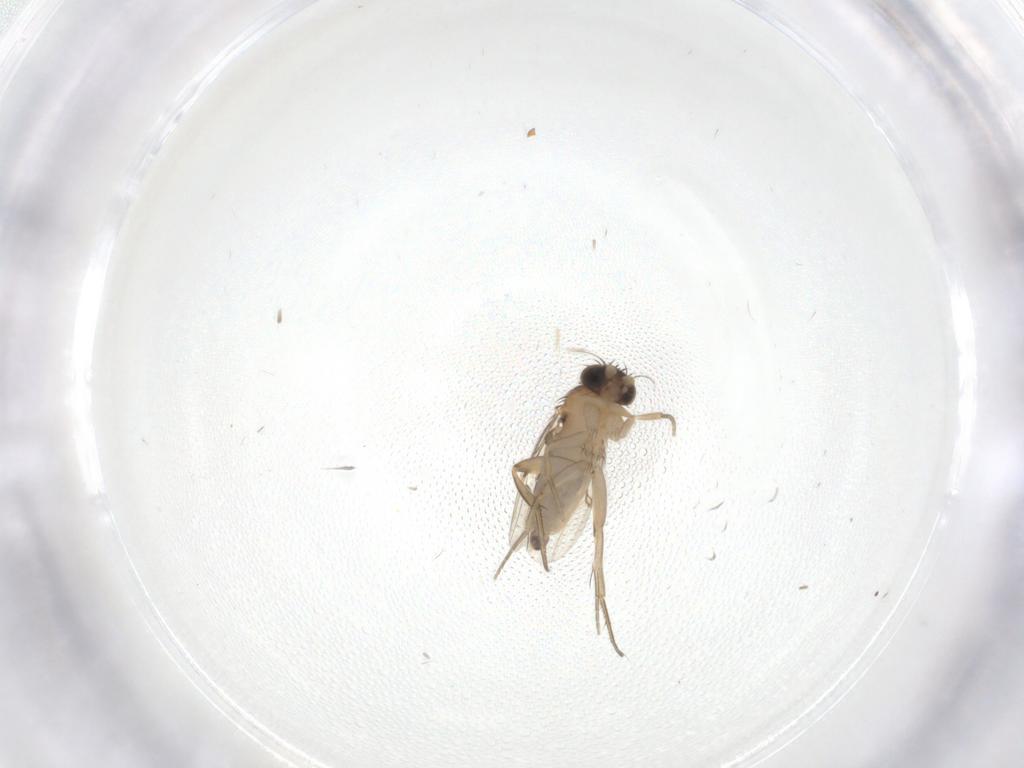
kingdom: Animalia
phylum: Arthropoda
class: Insecta
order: Diptera
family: Phoridae
